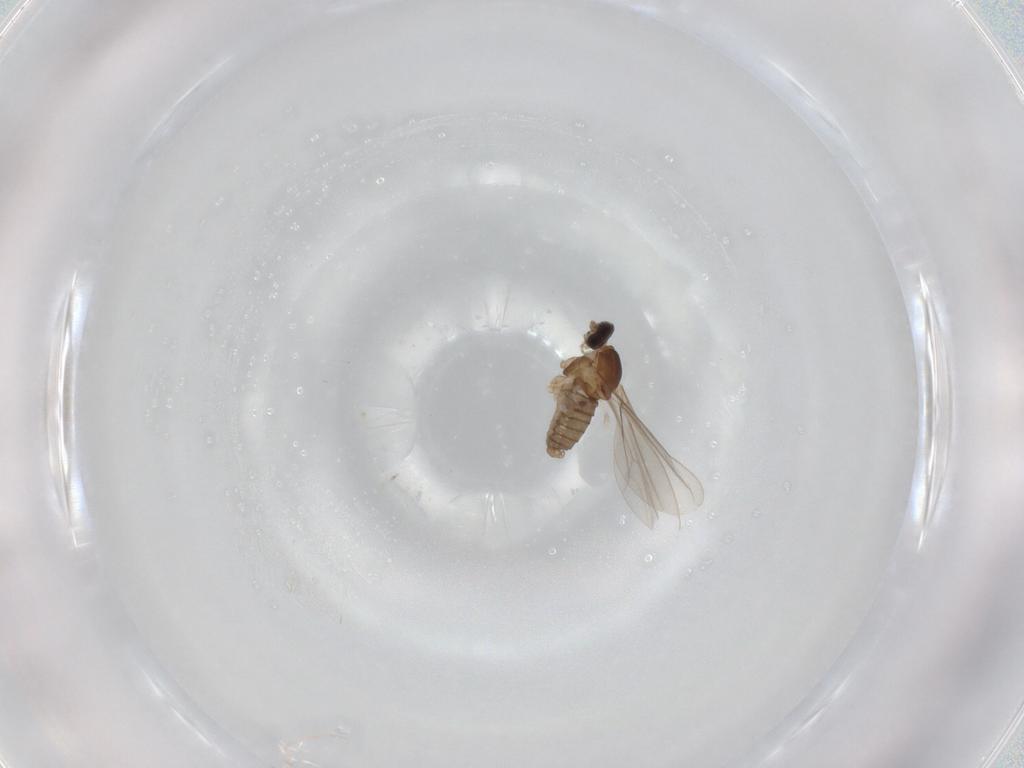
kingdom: Animalia
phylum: Arthropoda
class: Insecta
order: Diptera
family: Cecidomyiidae
